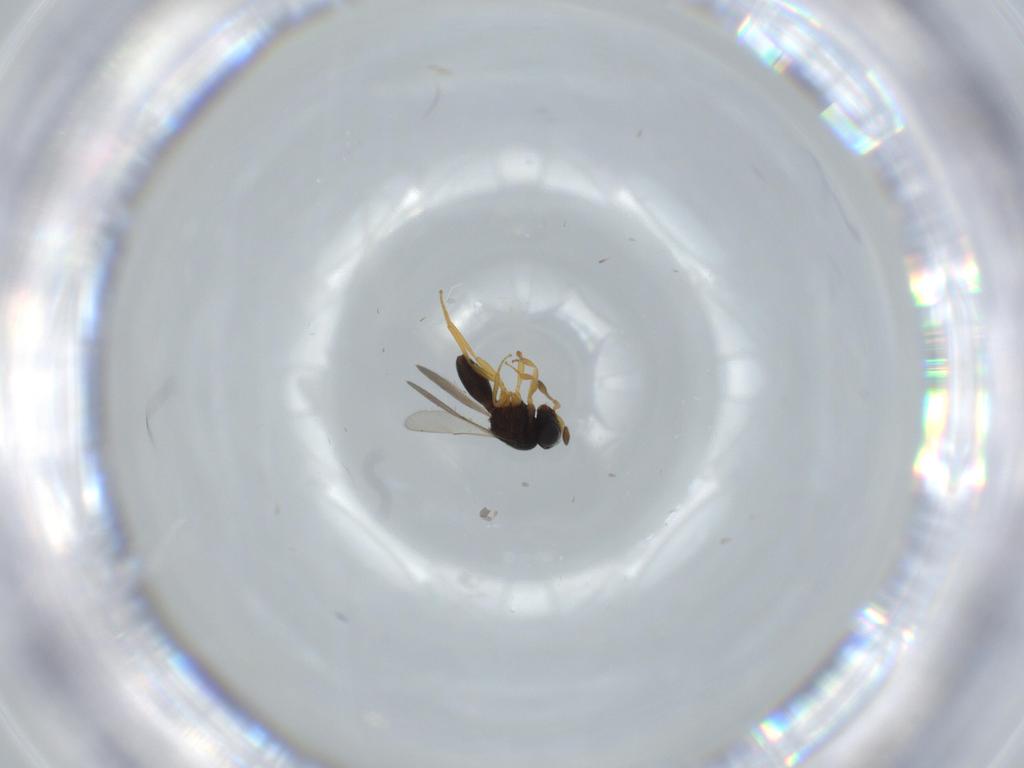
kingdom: Animalia
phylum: Arthropoda
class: Insecta
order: Hymenoptera
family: Scelionidae
